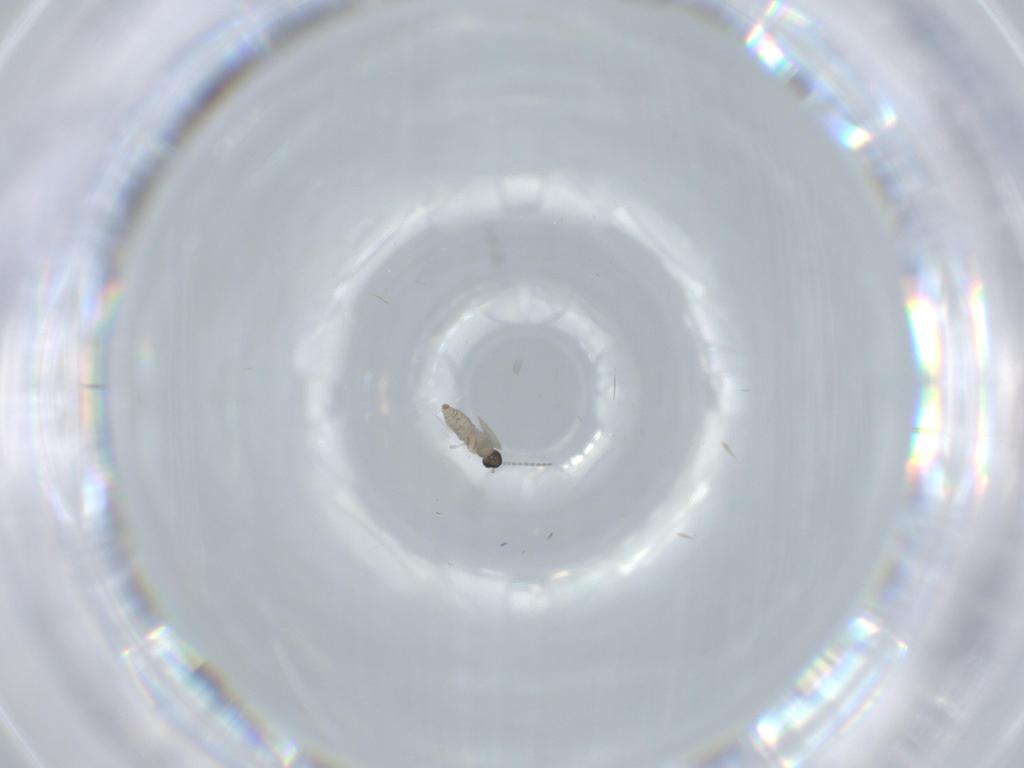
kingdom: Animalia
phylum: Arthropoda
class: Insecta
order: Diptera
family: Cecidomyiidae
